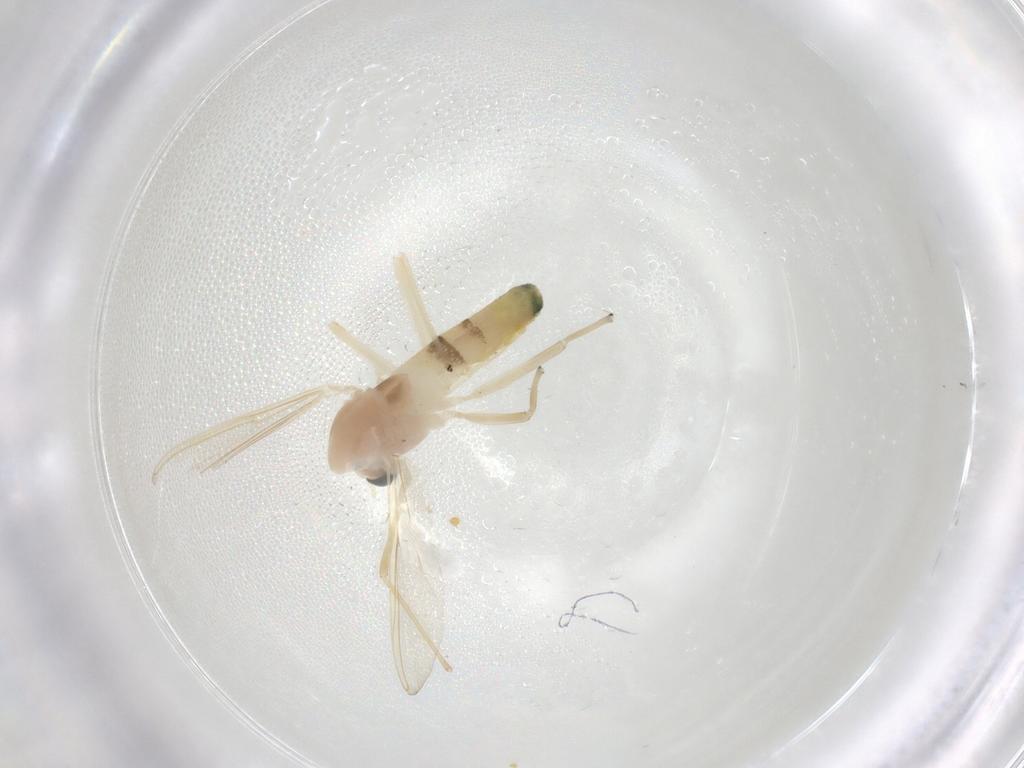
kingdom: Animalia
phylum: Arthropoda
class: Insecta
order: Diptera
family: Chironomidae
